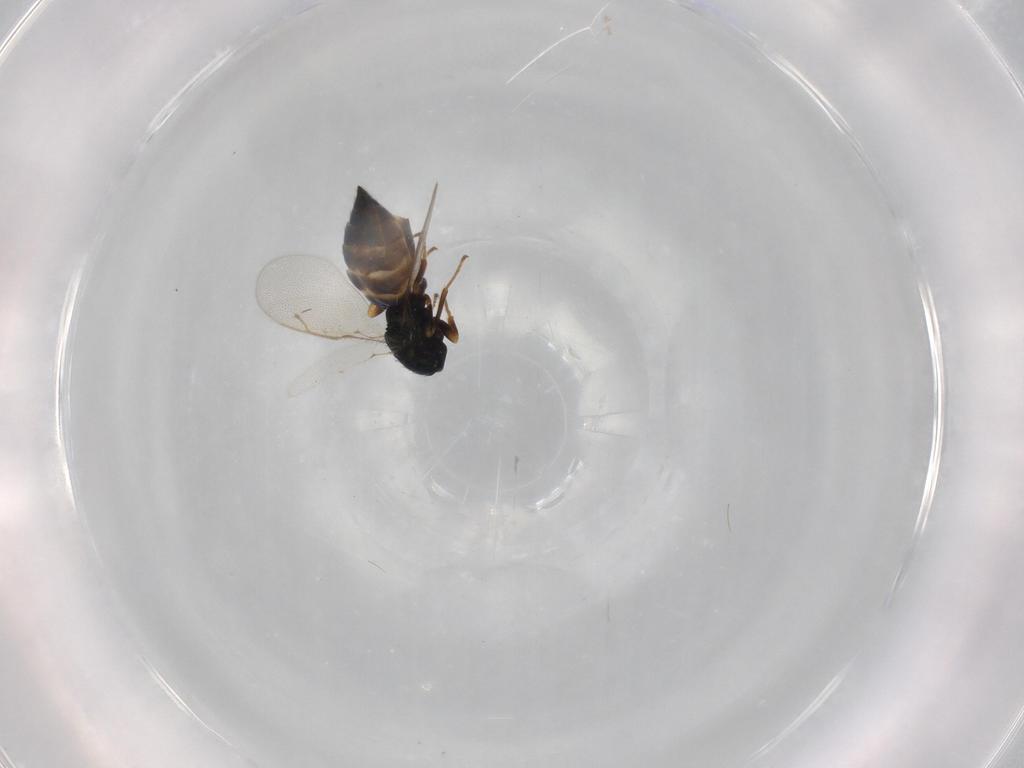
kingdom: Animalia
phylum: Arthropoda
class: Insecta
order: Hymenoptera
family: Pteromalidae
